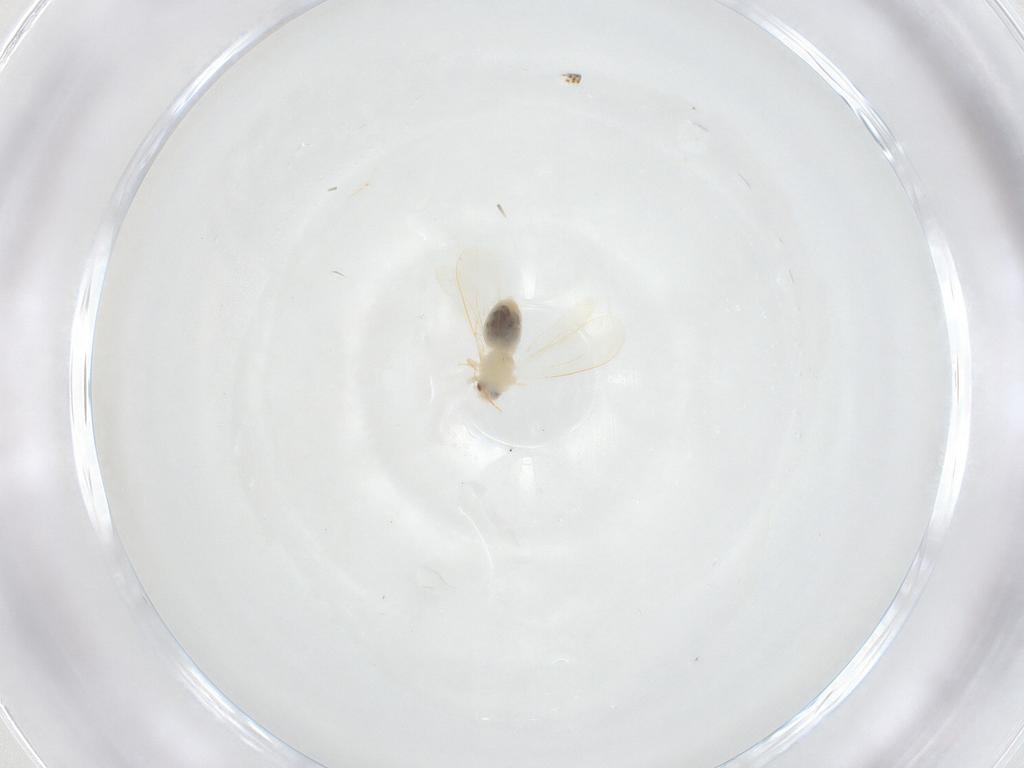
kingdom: Animalia
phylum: Arthropoda
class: Insecta
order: Hemiptera
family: Aleyrodidae
